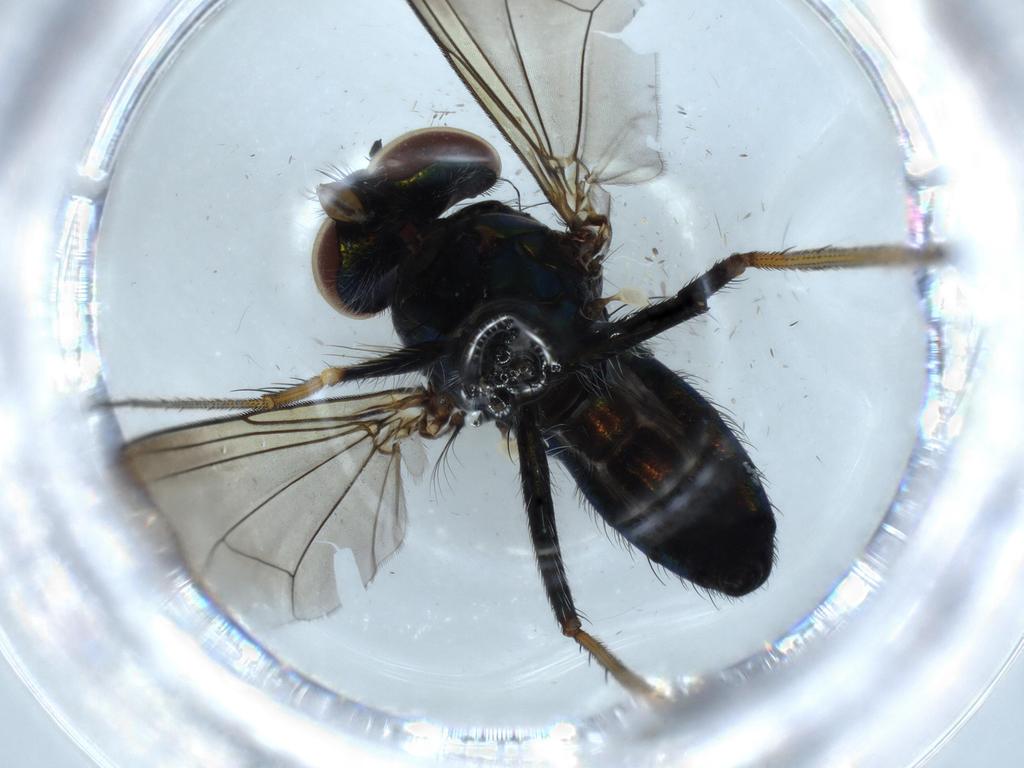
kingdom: Animalia
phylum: Arthropoda
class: Insecta
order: Diptera
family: Dolichopodidae
